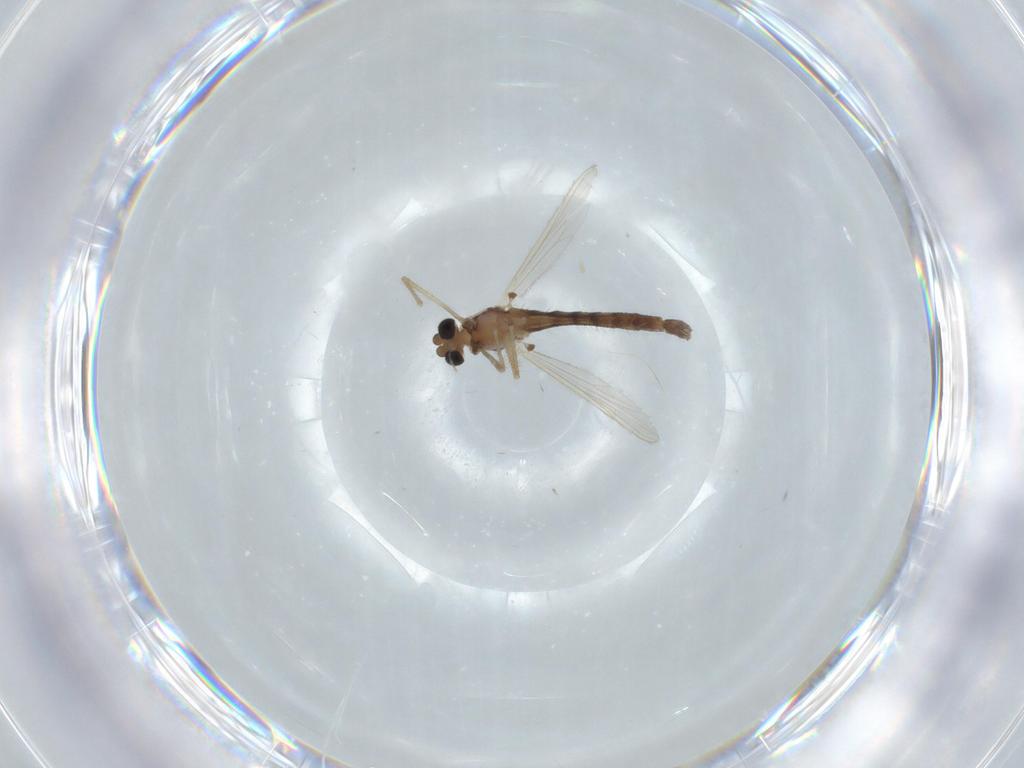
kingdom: Animalia
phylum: Arthropoda
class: Insecta
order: Diptera
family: Chironomidae
